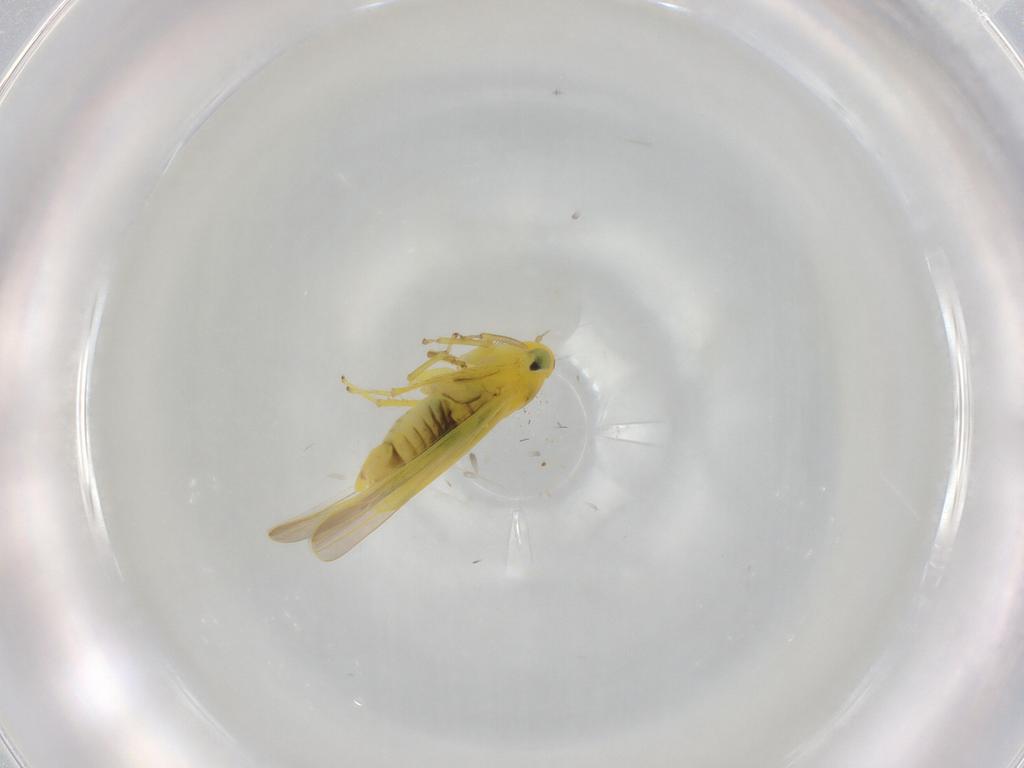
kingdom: Animalia
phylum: Arthropoda
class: Insecta
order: Hemiptera
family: Cicadellidae
